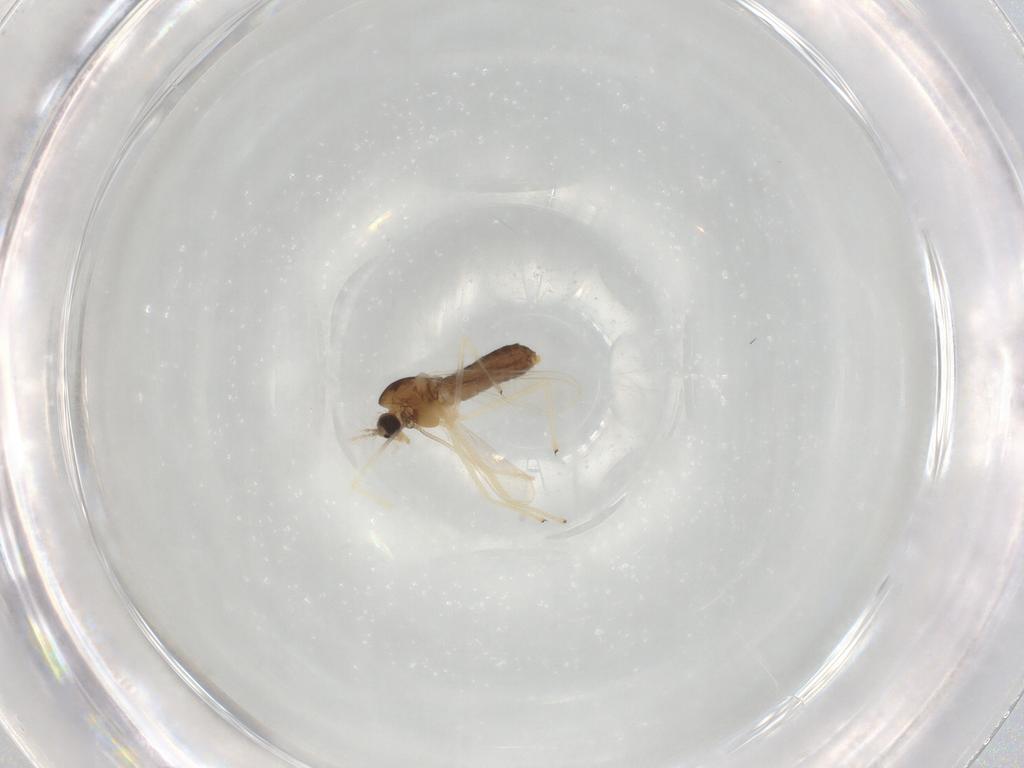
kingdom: Animalia
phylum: Arthropoda
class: Insecta
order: Diptera
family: Chironomidae
